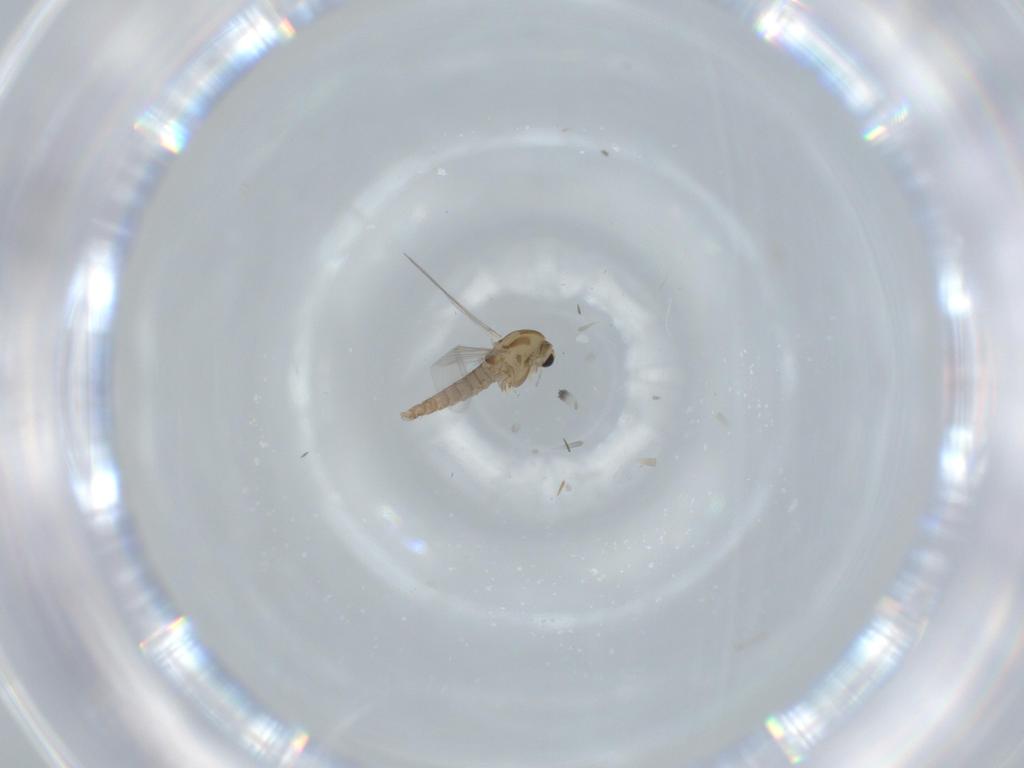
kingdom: Animalia
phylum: Arthropoda
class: Insecta
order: Diptera
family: Chironomidae
